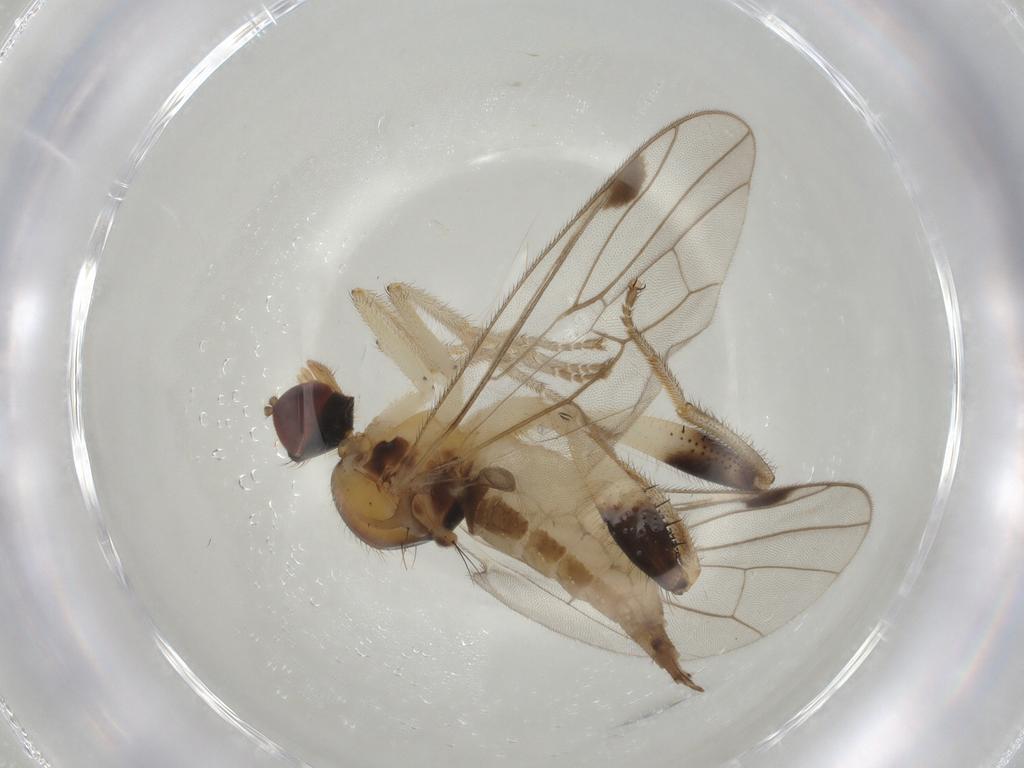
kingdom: Animalia
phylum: Arthropoda
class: Insecta
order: Diptera
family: Hybotidae
